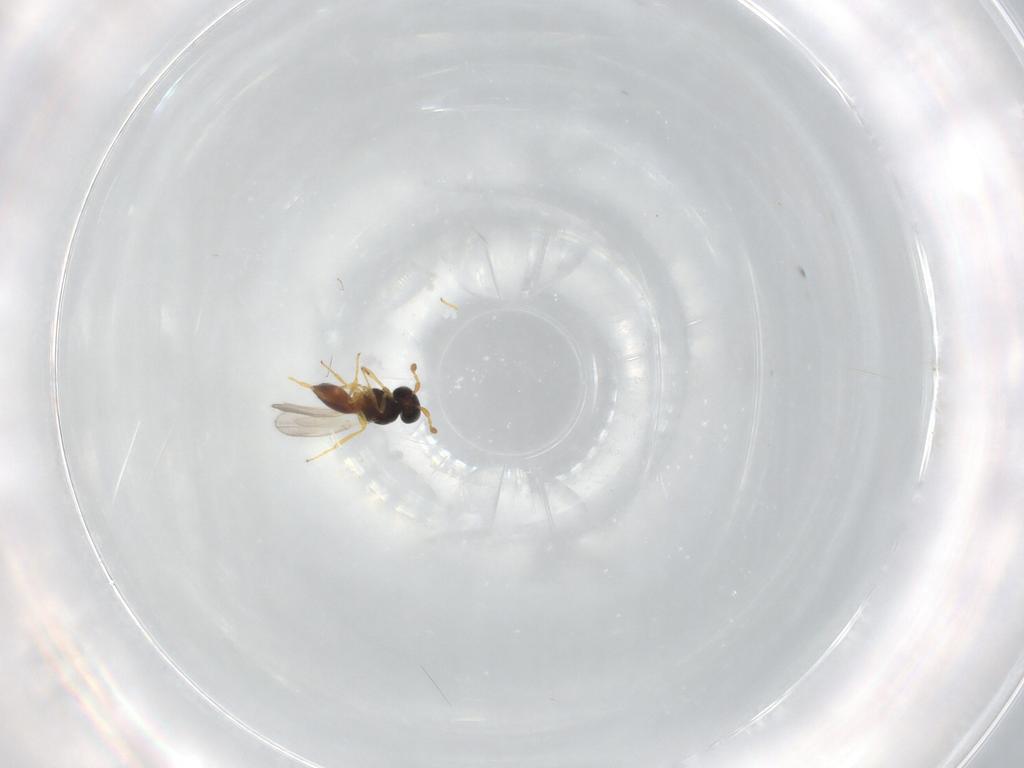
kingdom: Animalia
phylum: Arthropoda
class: Insecta
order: Hymenoptera
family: Platygastridae
